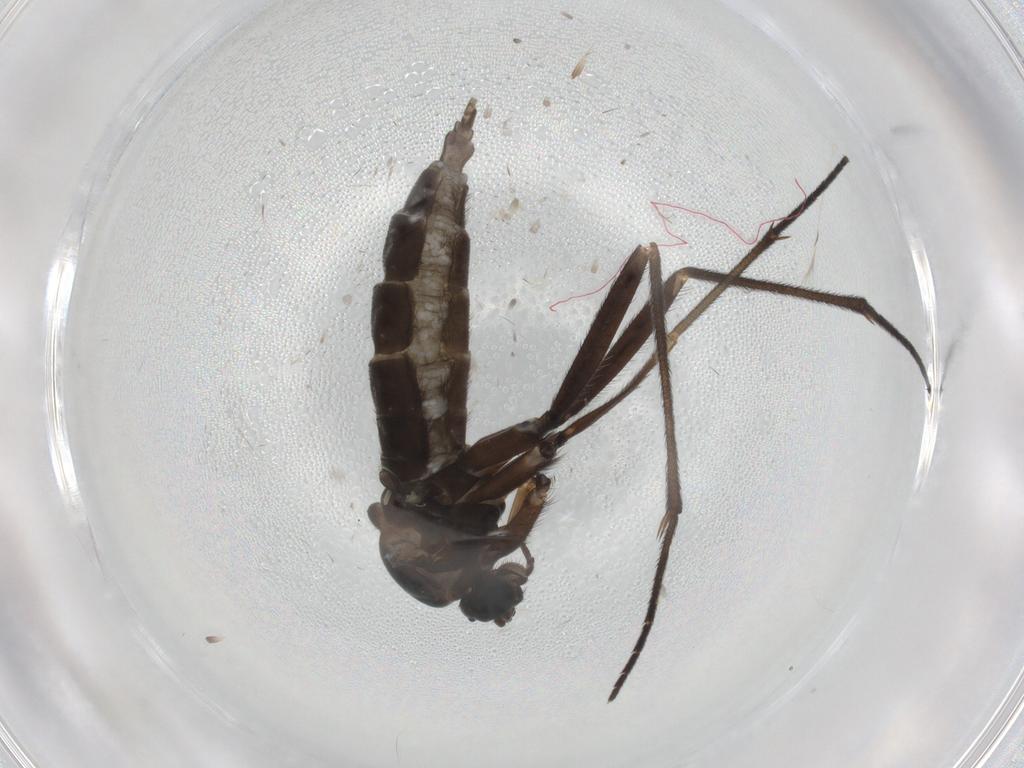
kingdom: Animalia
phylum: Arthropoda
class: Insecta
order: Diptera
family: Sciaridae
